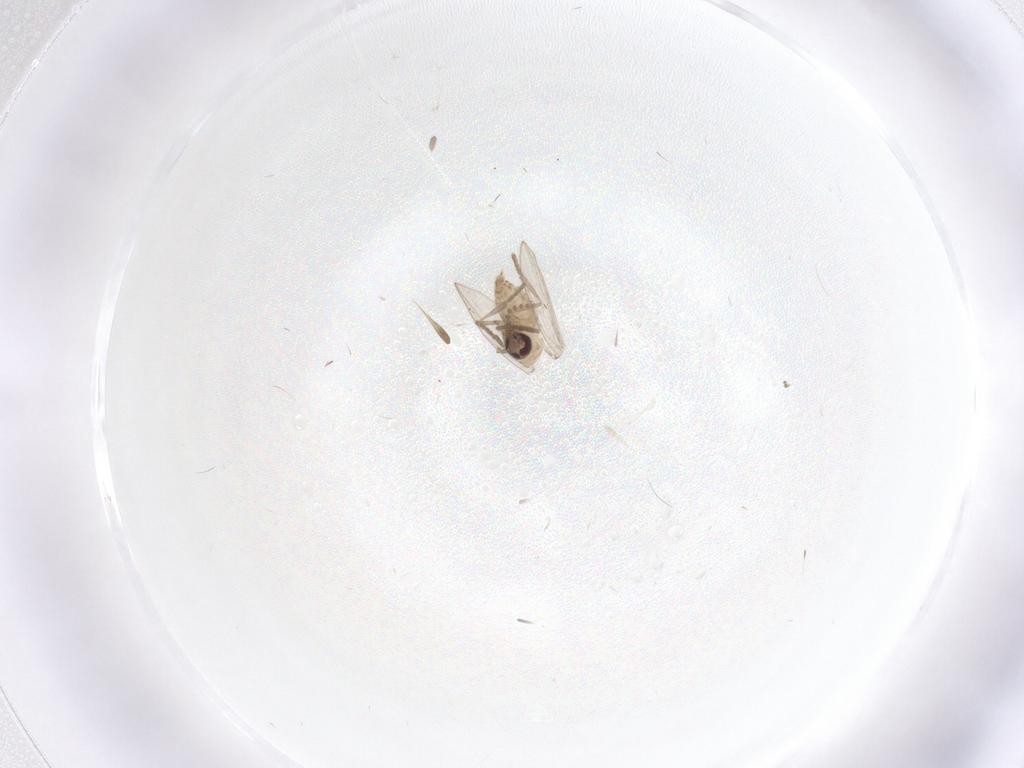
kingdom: Animalia
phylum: Arthropoda
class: Insecta
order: Diptera
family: Psychodidae
